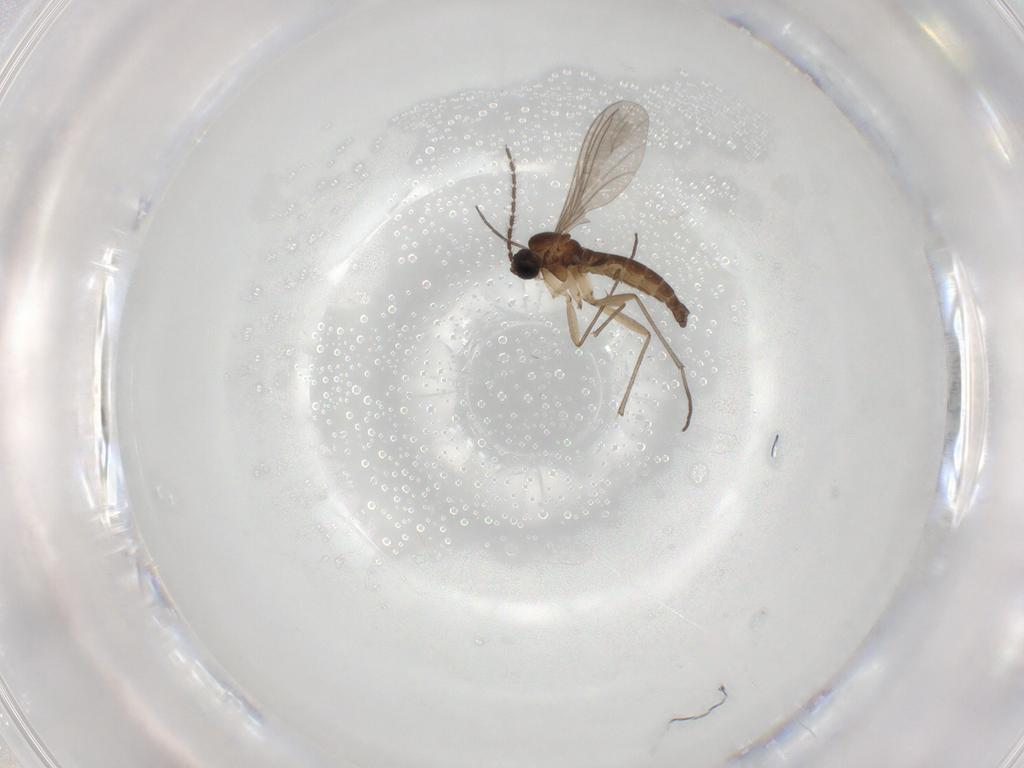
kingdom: Animalia
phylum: Arthropoda
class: Insecta
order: Diptera
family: Sciaridae
